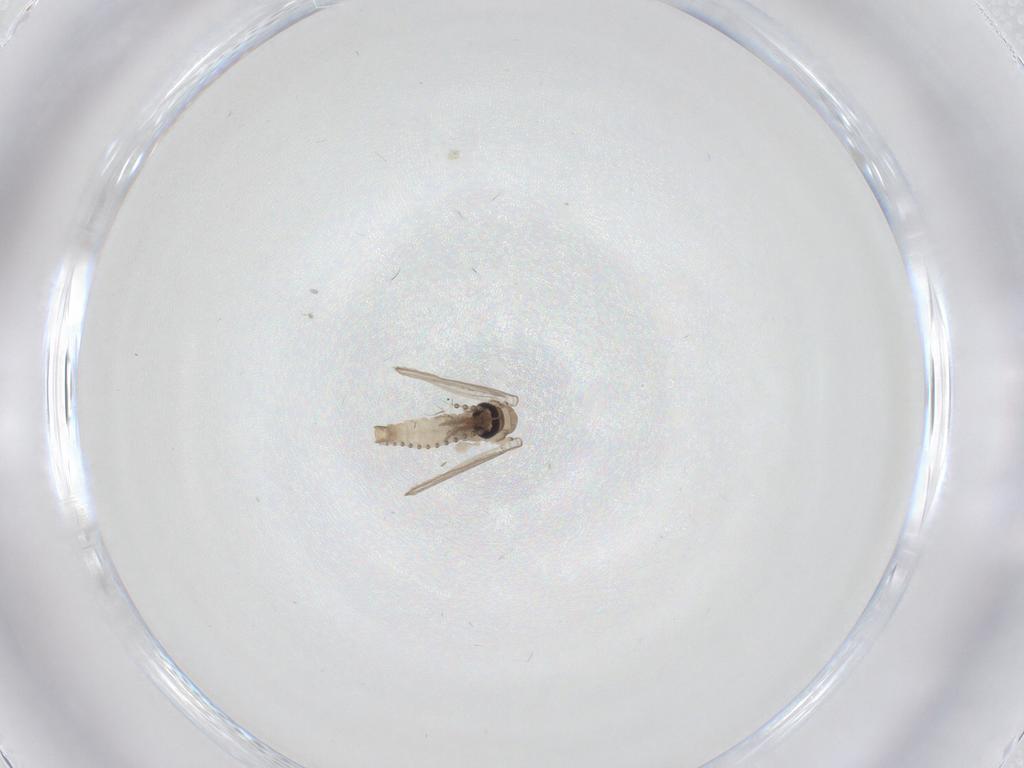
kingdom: Animalia
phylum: Arthropoda
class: Insecta
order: Diptera
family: Psychodidae
